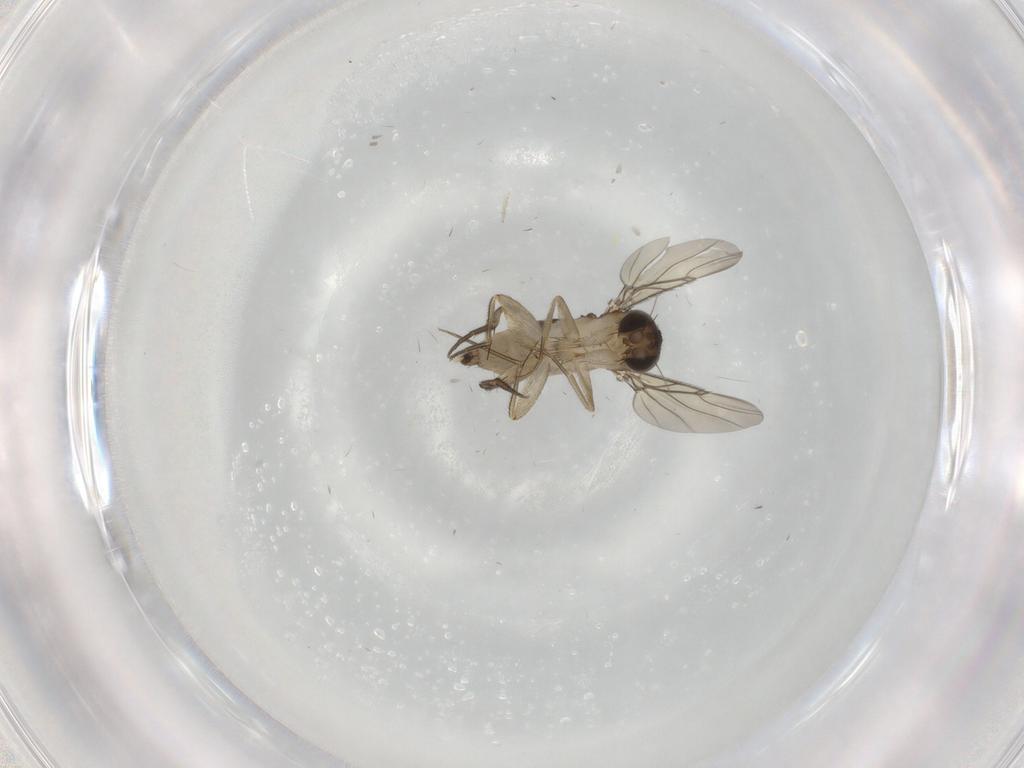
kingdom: Animalia
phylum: Arthropoda
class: Insecta
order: Diptera
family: Phoridae
